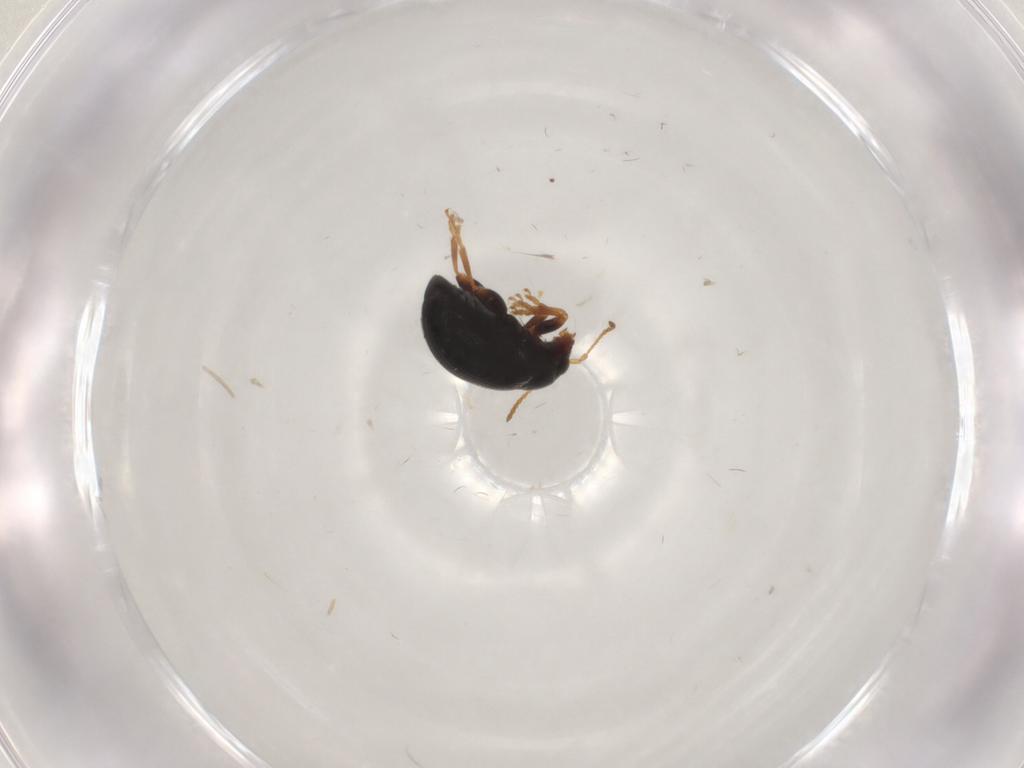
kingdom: Animalia
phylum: Arthropoda
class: Insecta
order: Coleoptera
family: Chrysomelidae
